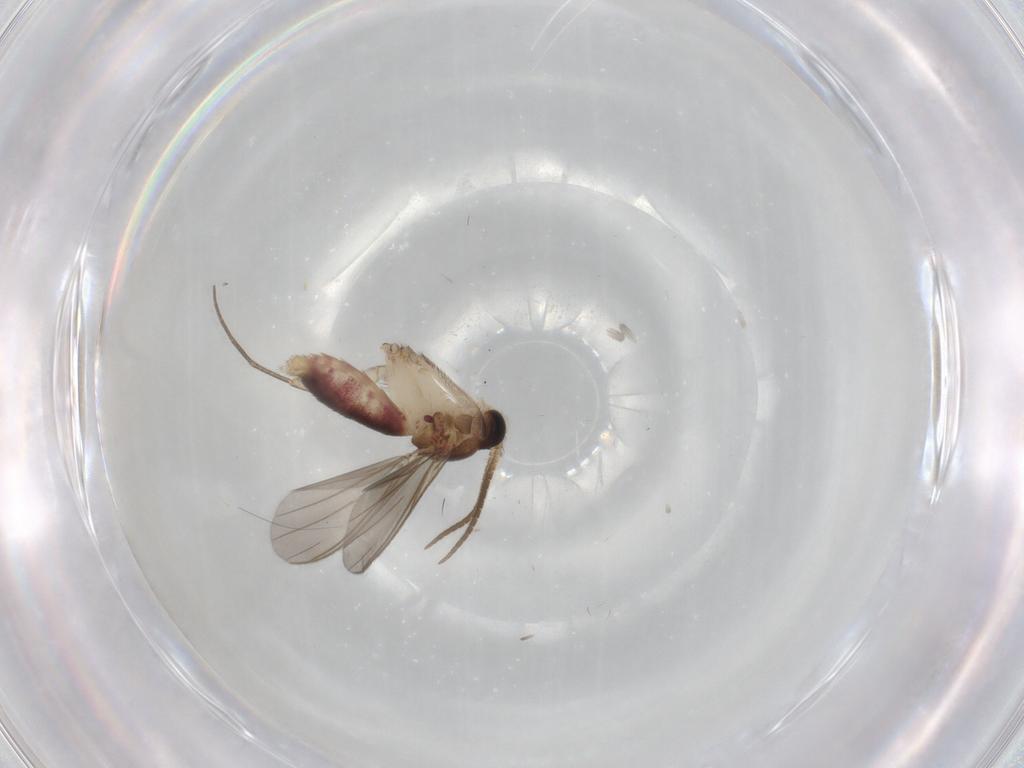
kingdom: Animalia
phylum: Arthropoda
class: Insecta
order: Diptera
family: Mycetophilidae
